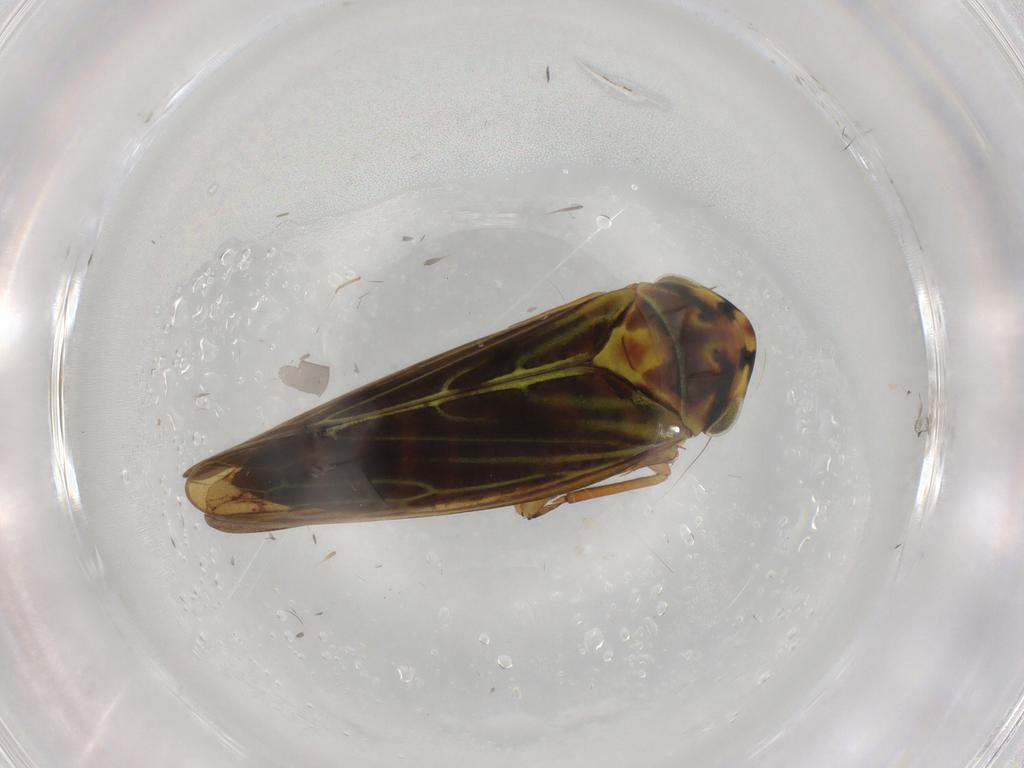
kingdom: Animalia
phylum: Arthropoda
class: Insecta
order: Hemiptera
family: Cicadellidae
